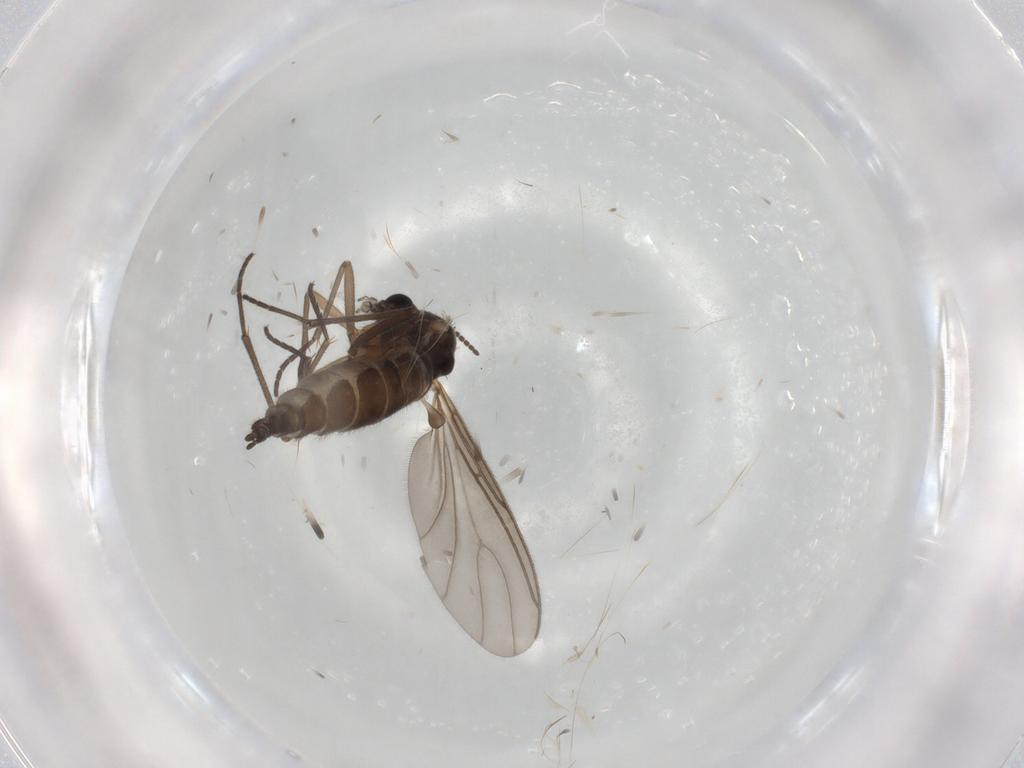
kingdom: Animalia
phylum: Arthropoda
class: Insecta
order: Diptera
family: Sciaridae
